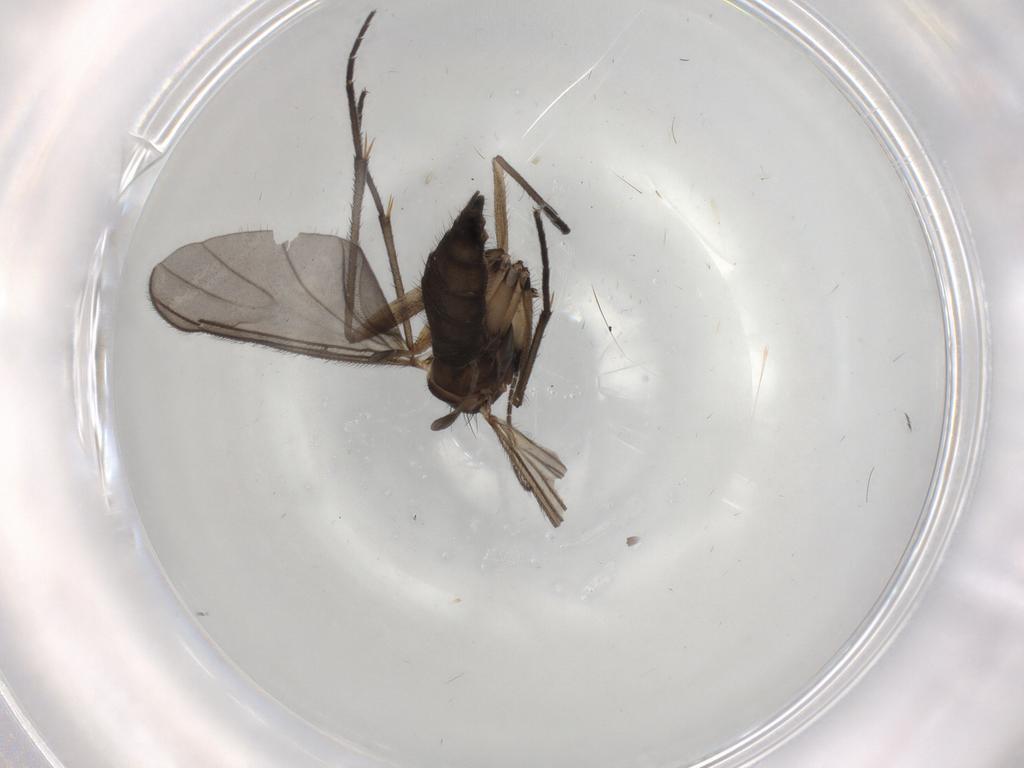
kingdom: Animalia
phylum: Arthropoda
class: Insecta
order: Diptera
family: Sciaridae
